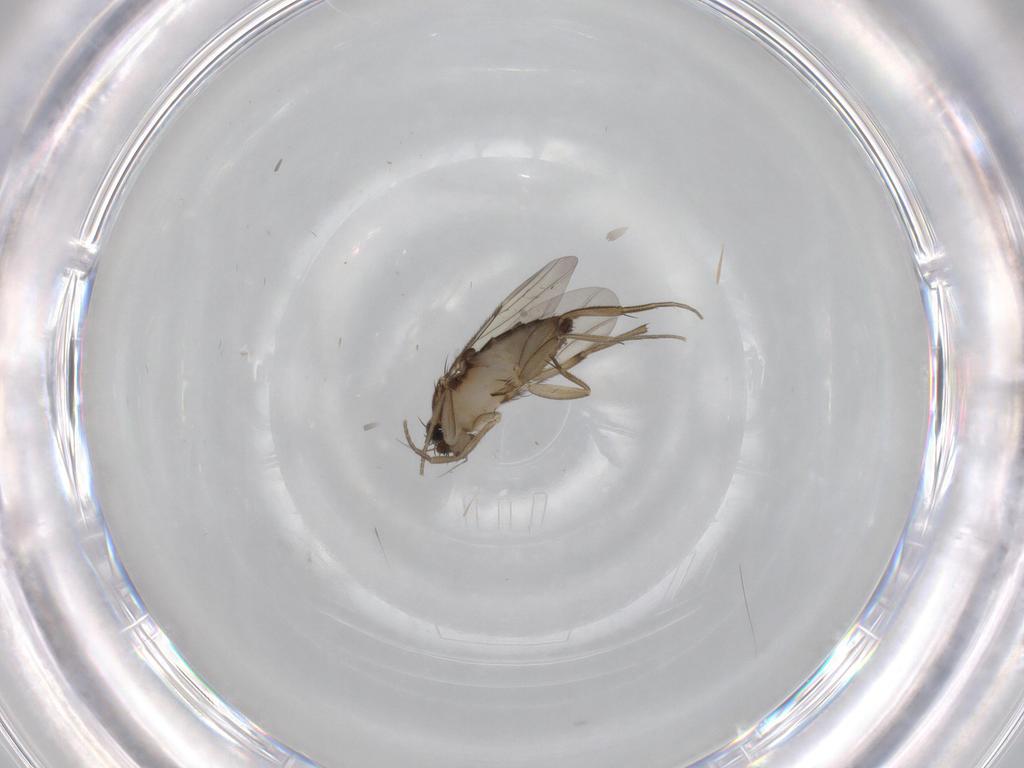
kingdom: Animalia
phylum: Arthropoda
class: Insecta
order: Diptera
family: Phoridae
